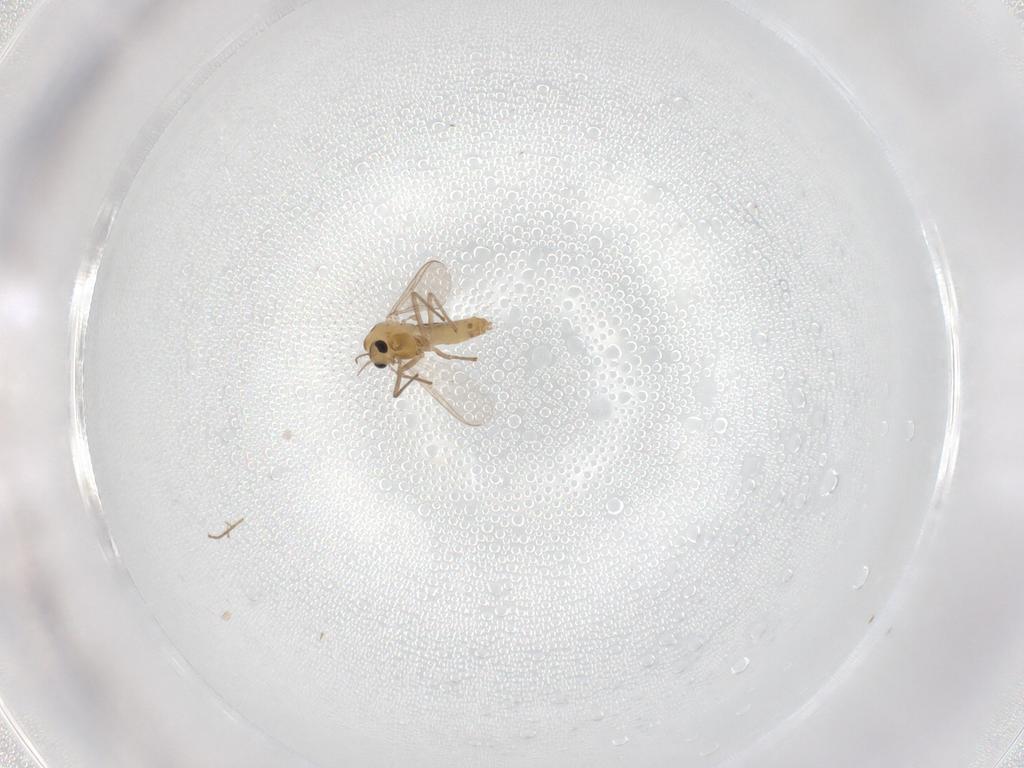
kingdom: Animalia
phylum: Arthropoda
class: Insecta
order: Diptera
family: Chironomidae
